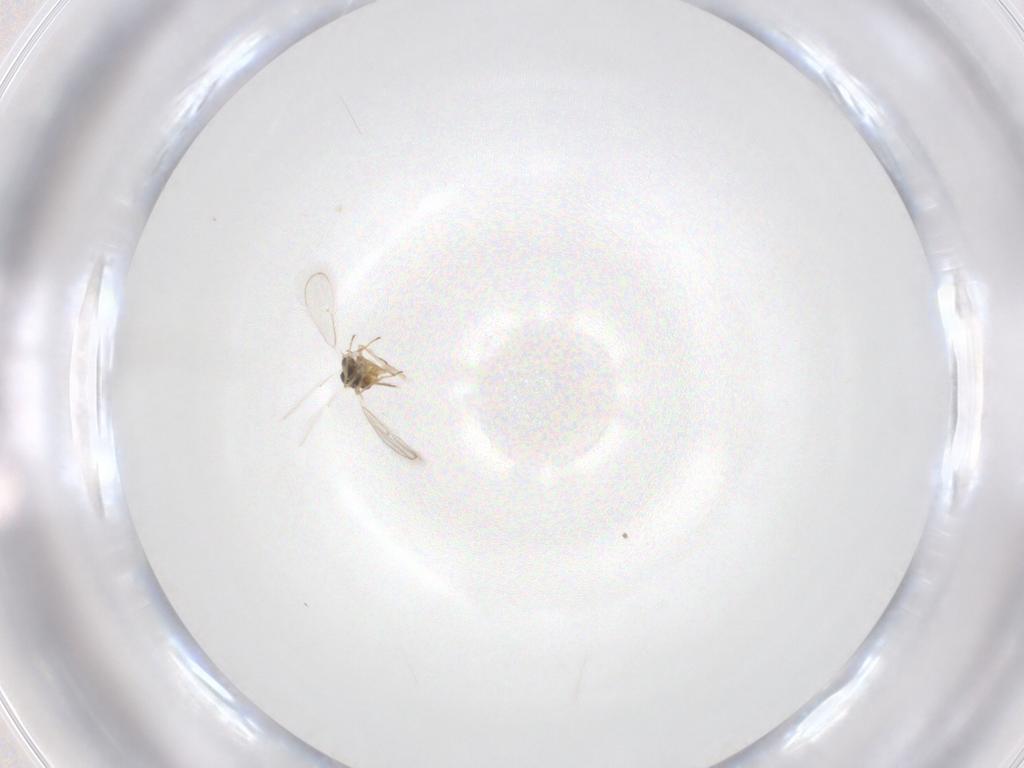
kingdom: Animalia
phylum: Arthropoda
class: Insecta
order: Hymenoptera
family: Eulophidae
